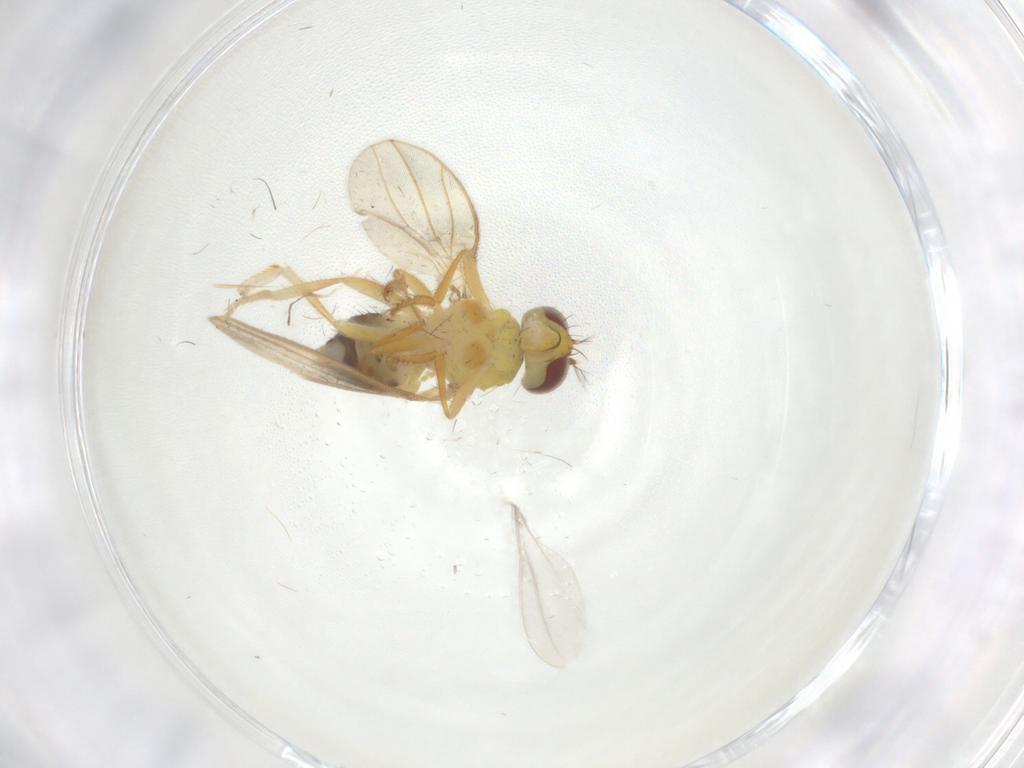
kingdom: Animalia
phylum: Arthropoda
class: Insecta
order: Diptera
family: Periscelididae
